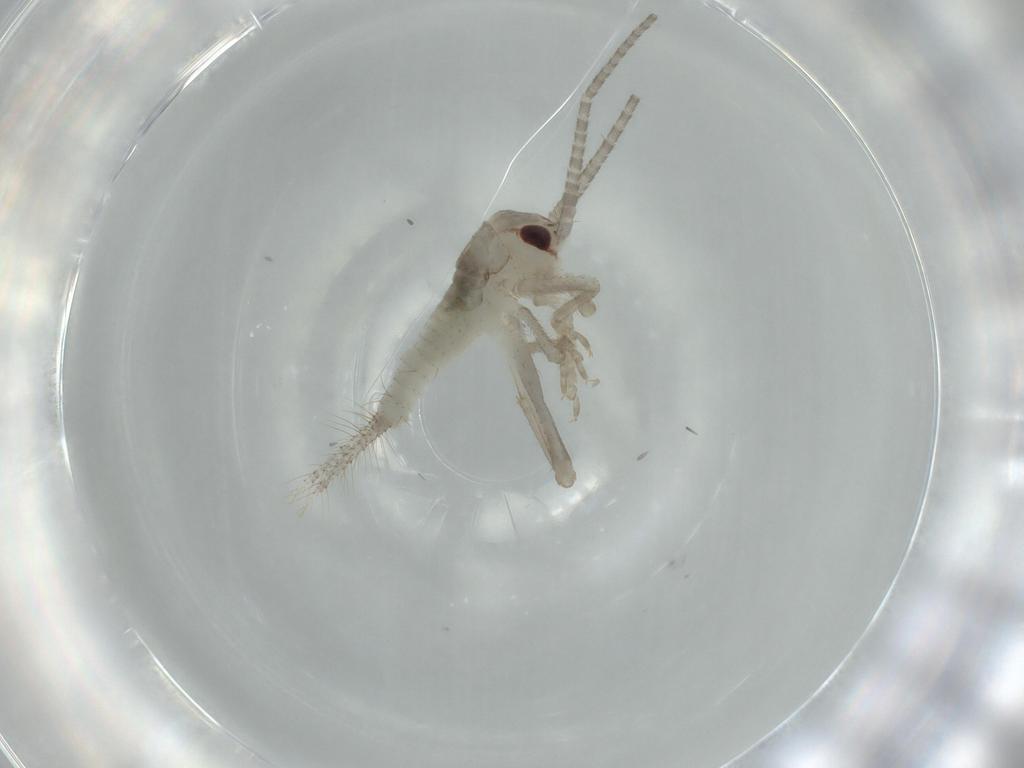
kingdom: Animalia
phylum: Arthropoda
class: Insecta
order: Orthoptera
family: Gryllidae
